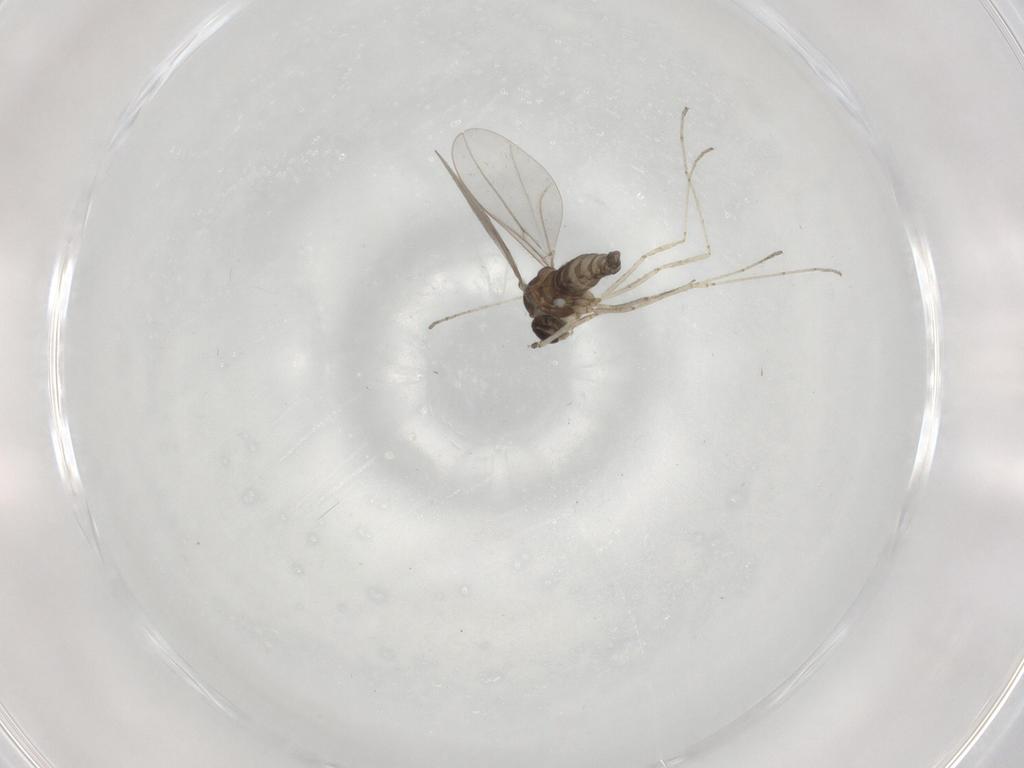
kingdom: Animalia
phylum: Arthropoda
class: Insecta
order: Diptera
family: Cecidomyiidae
